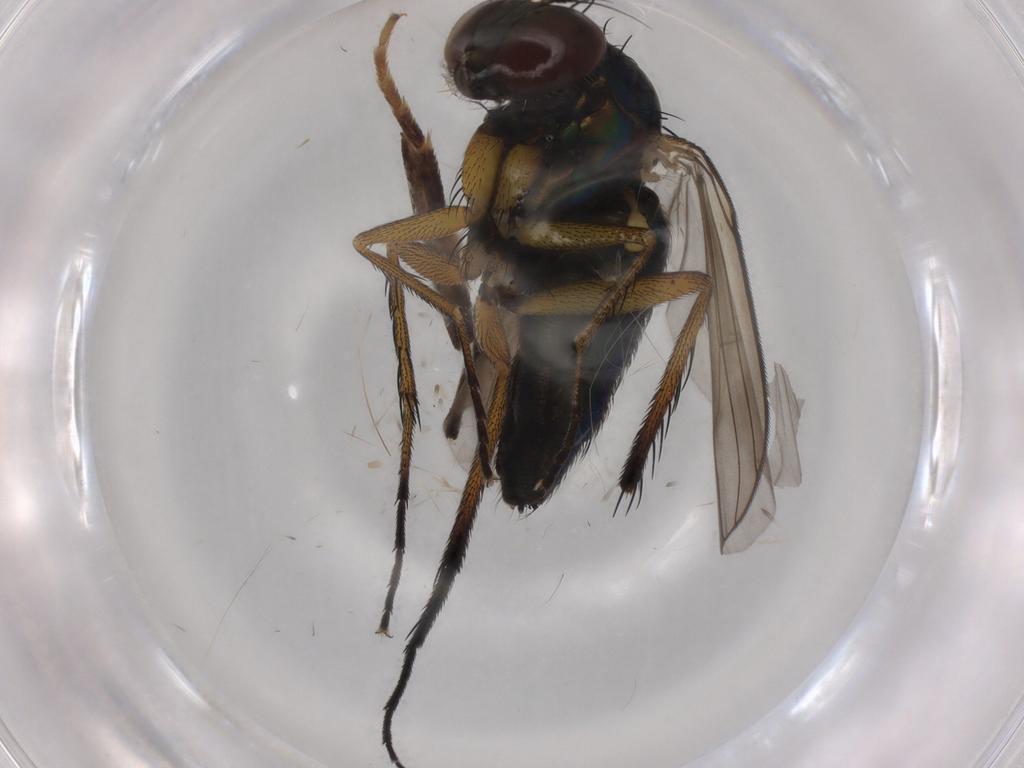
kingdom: Animalia
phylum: Arthropoda
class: Insecta
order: Diptera
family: Dolichopodidae
